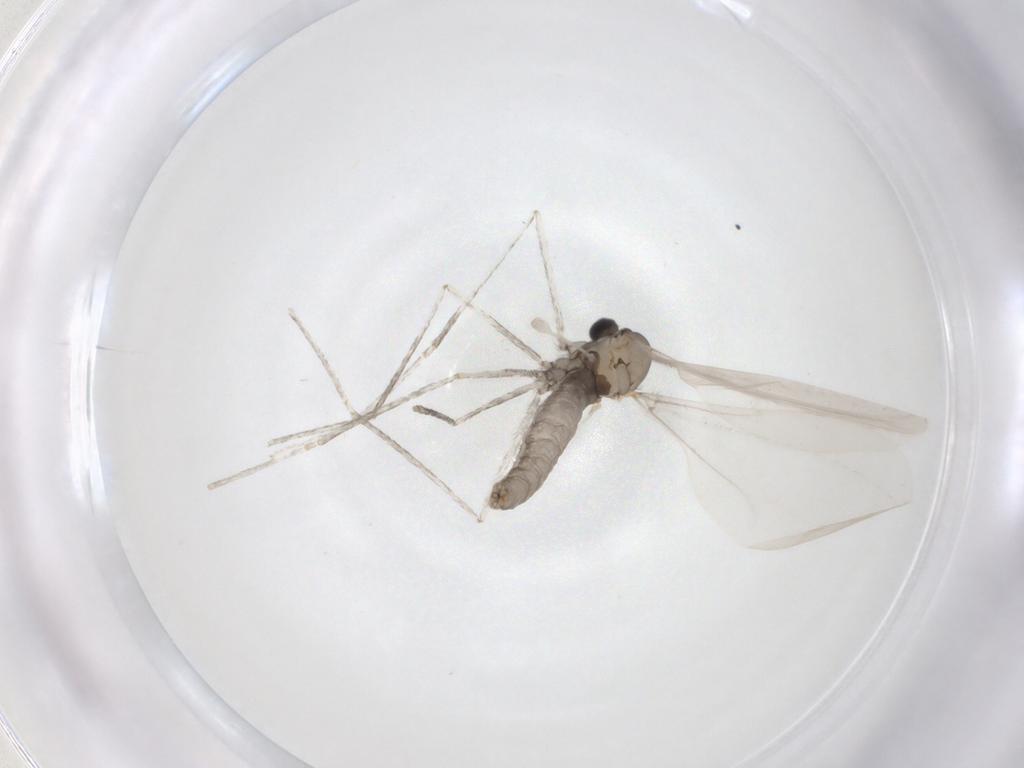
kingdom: Animalia
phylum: Arthropoda
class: Insecta
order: Diptera
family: Cecidomyiidae
